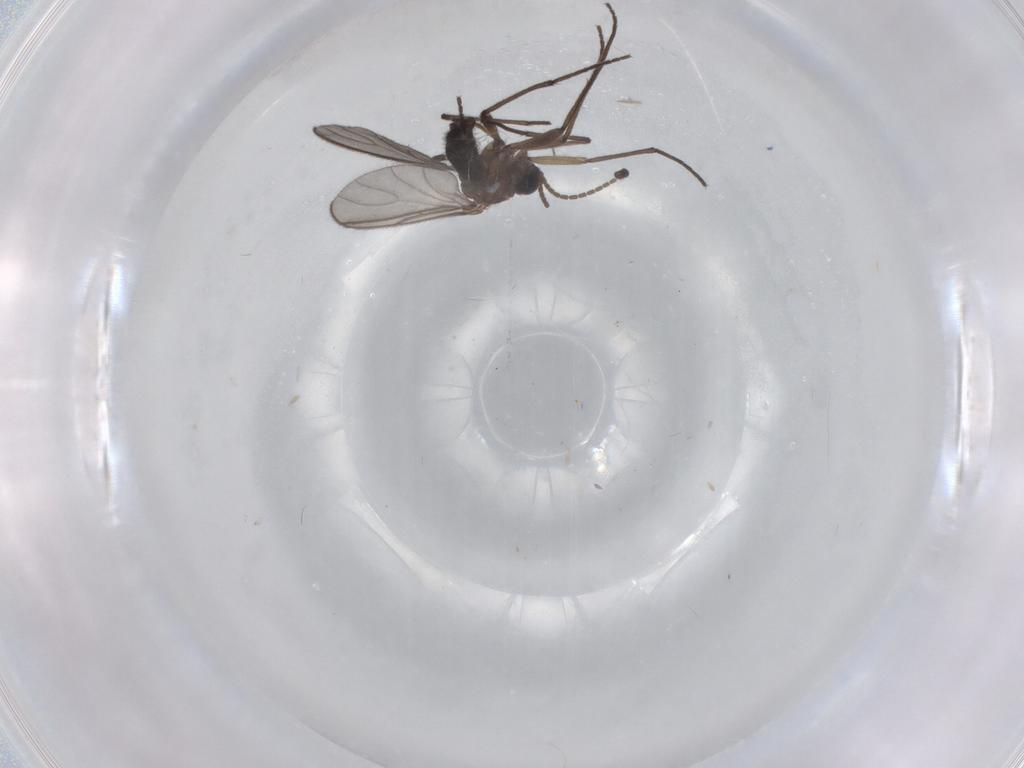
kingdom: Animalia
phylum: Arthropoda
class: Insecta
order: Diptera
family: Sciaridae
